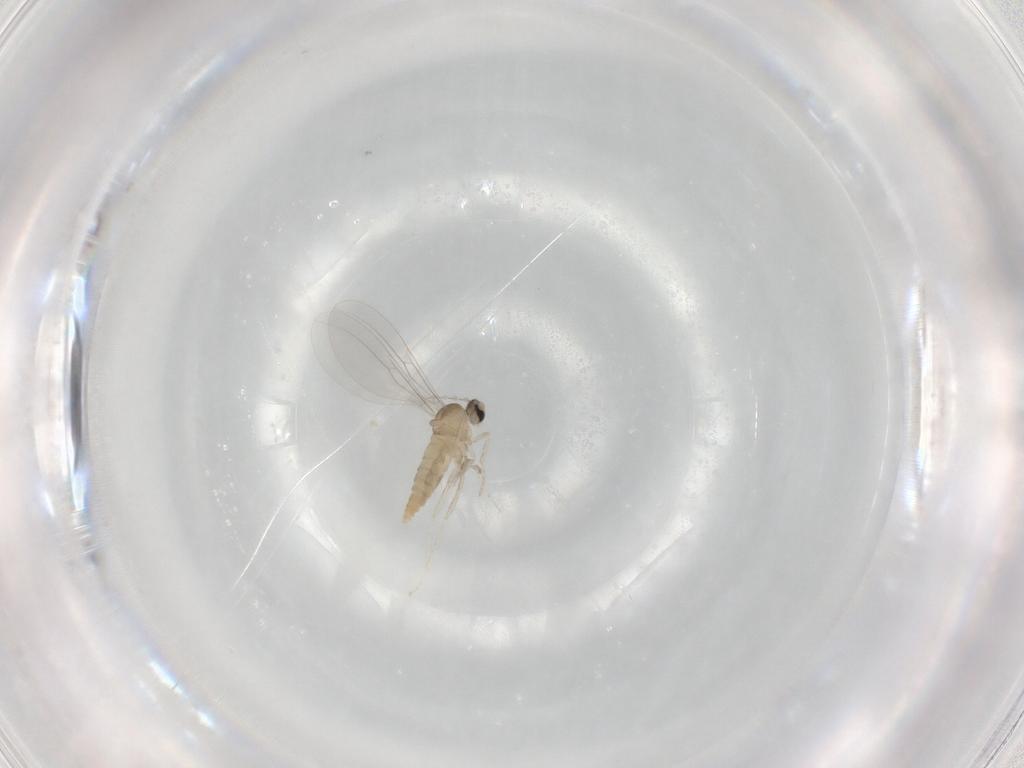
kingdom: Animalia
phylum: Arthropoda
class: Insecta
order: Diptera
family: Cecidomyiidae
